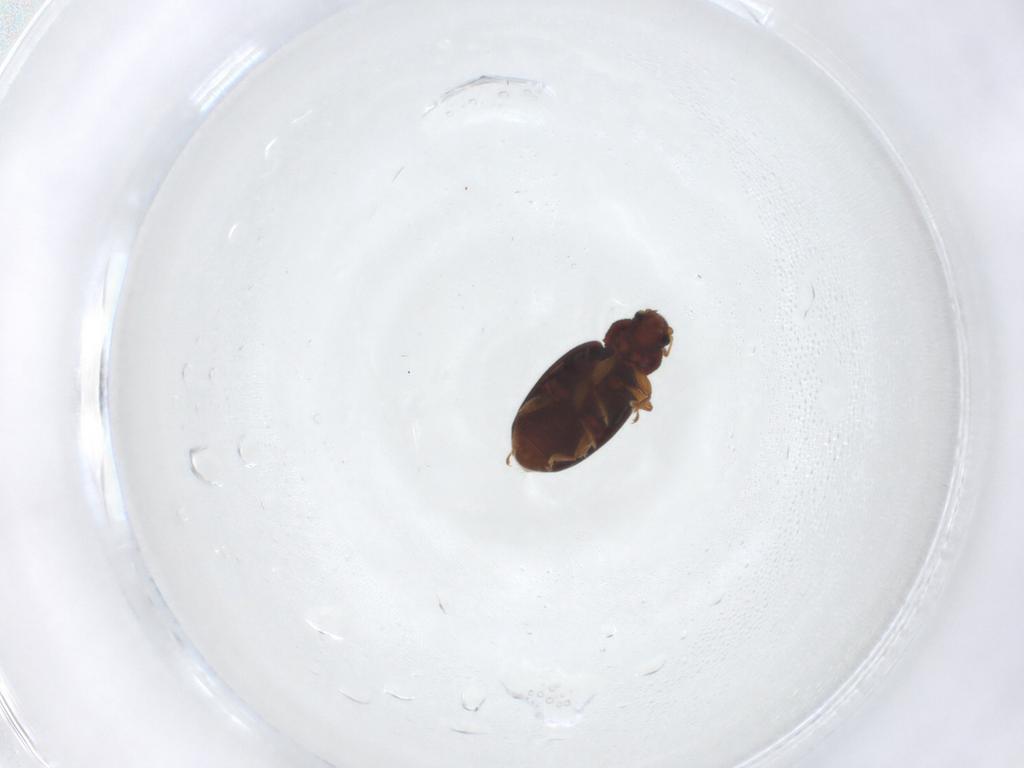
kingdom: Animalia
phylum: Arthropoda
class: Insecta
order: Coleoptera
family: Latridiidae
